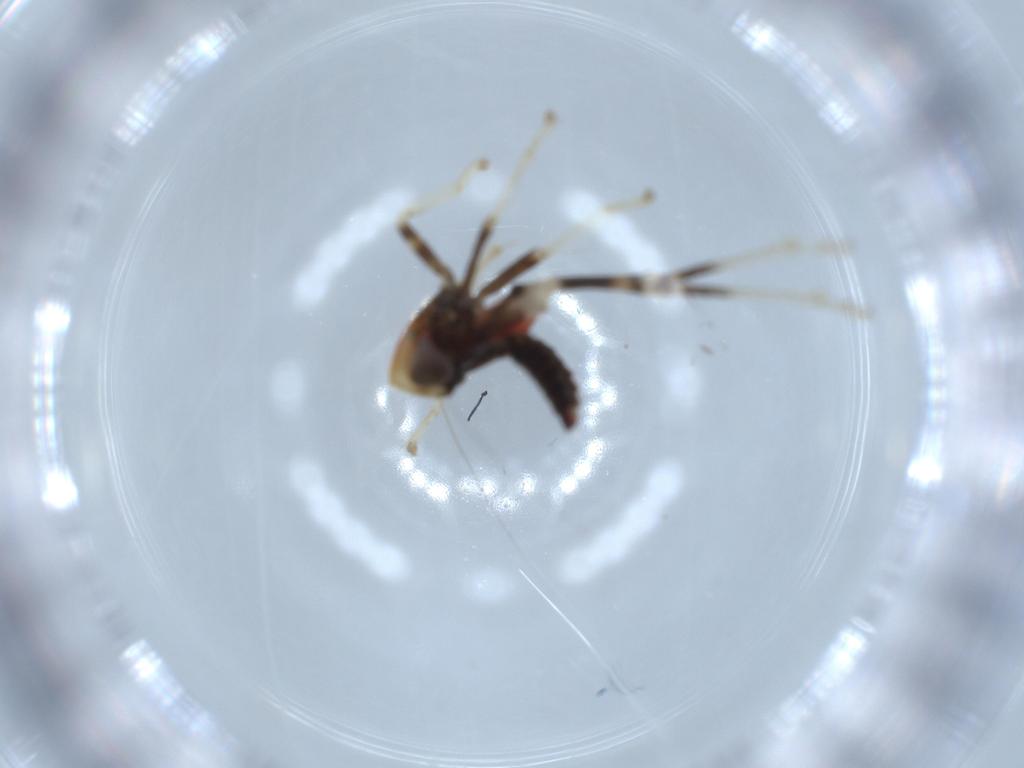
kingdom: Animalia
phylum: Arthropoda
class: Insecta
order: Hemiptera
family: Cicadellidae
